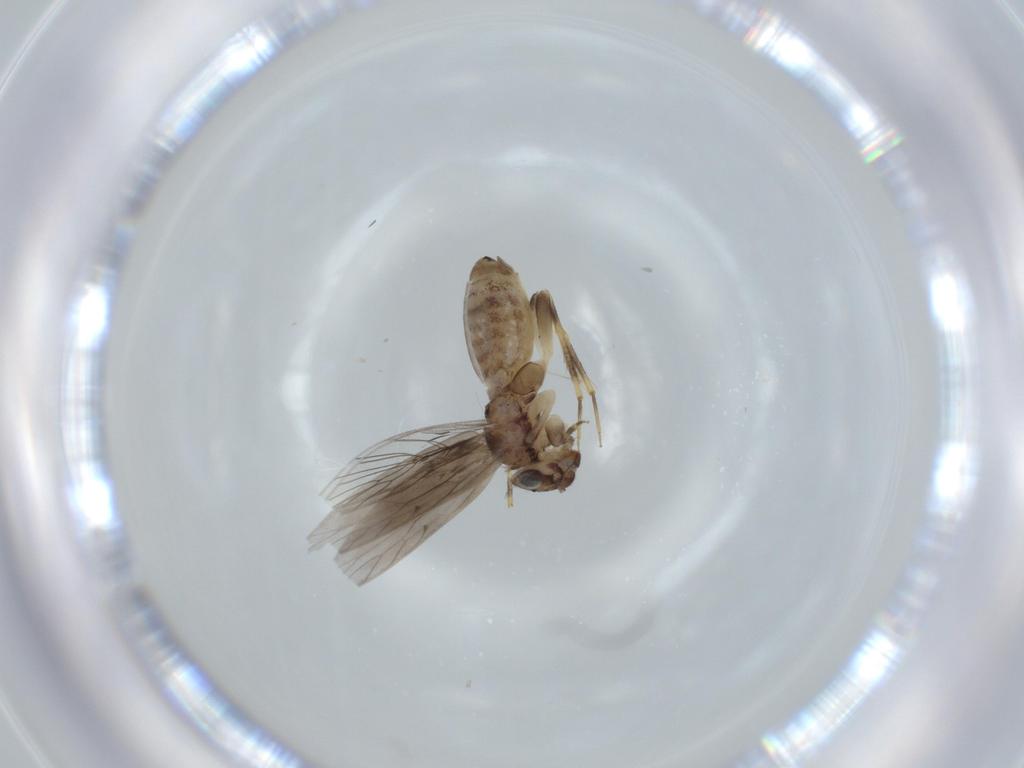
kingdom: Animalia
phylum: Arthropoda
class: Insecta
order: Psocodea
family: Lepidopsocidae
